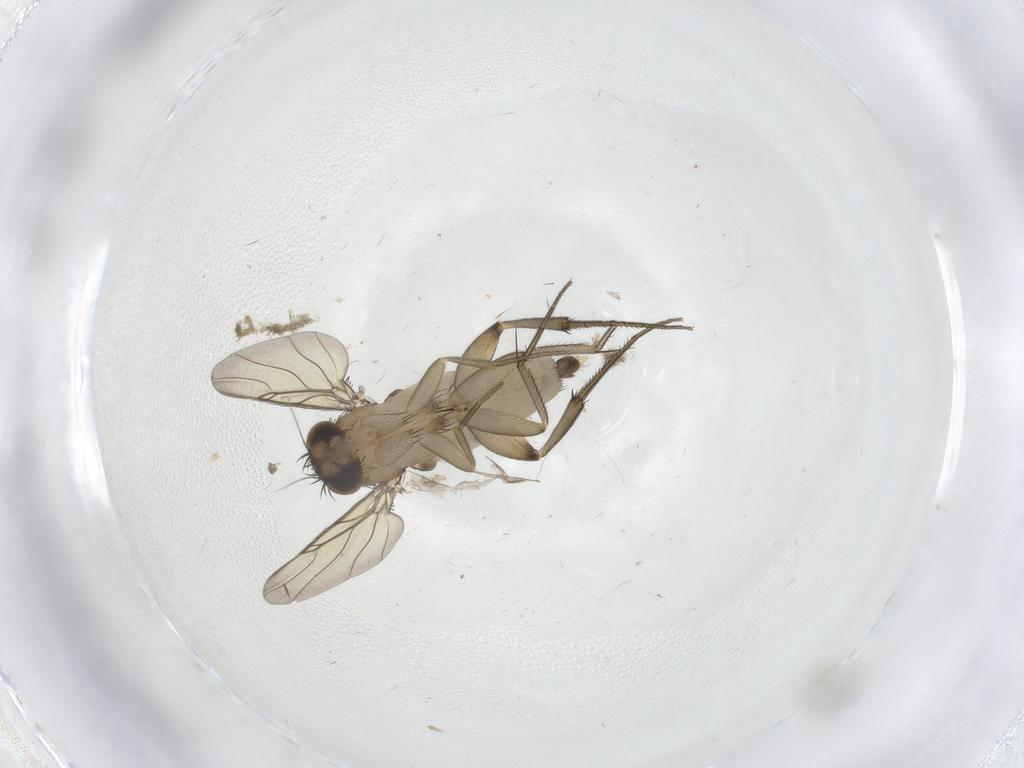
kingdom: Animalia
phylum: Arthropoda
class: Insecta
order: Diptera
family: Phoridae
